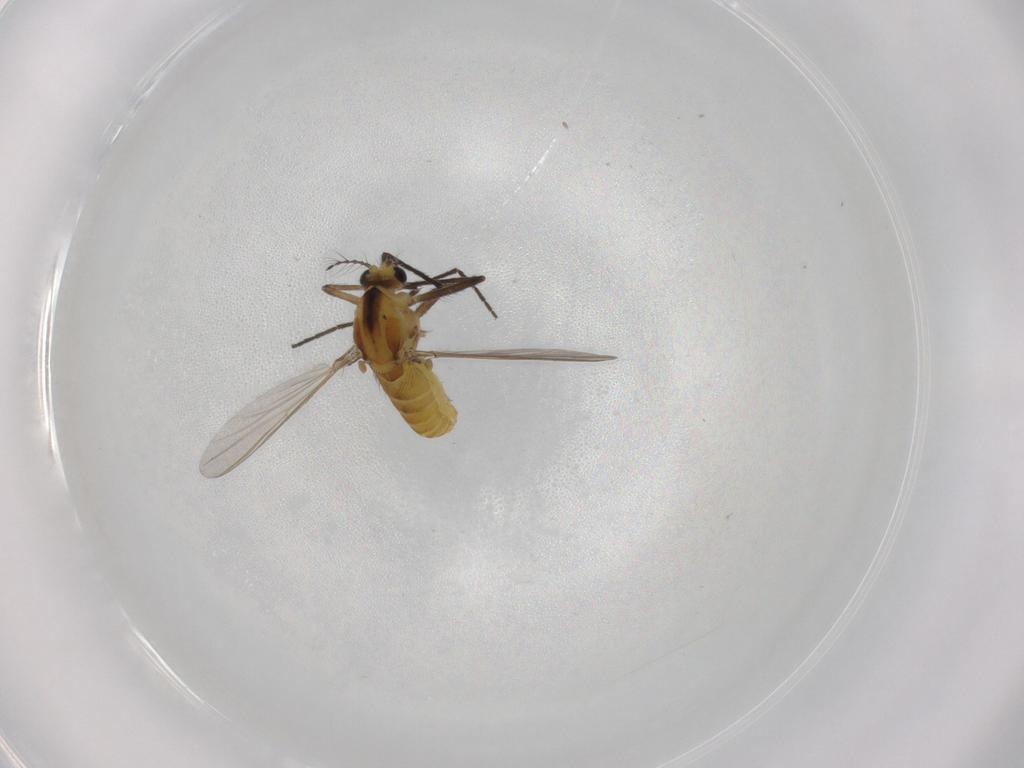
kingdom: Animalia
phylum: Arthropoda
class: Insecta
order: Diptera
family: Chironomidae
